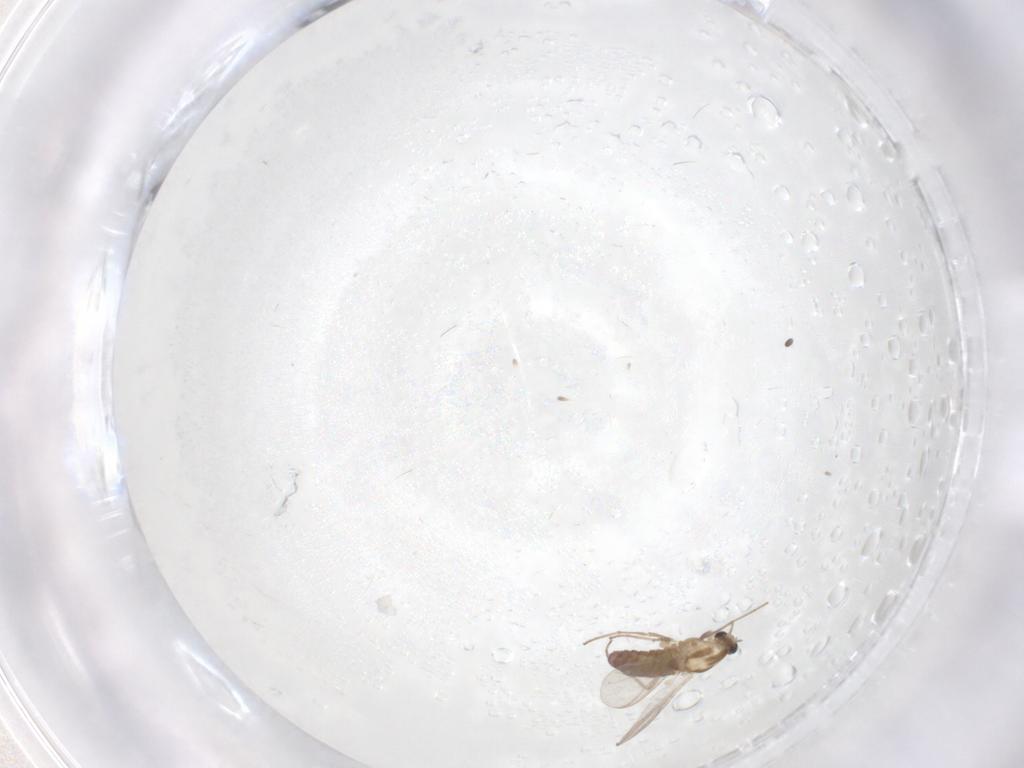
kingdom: Animalia
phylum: Arthropoda
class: Insecta
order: Diptera
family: Chironomidae
